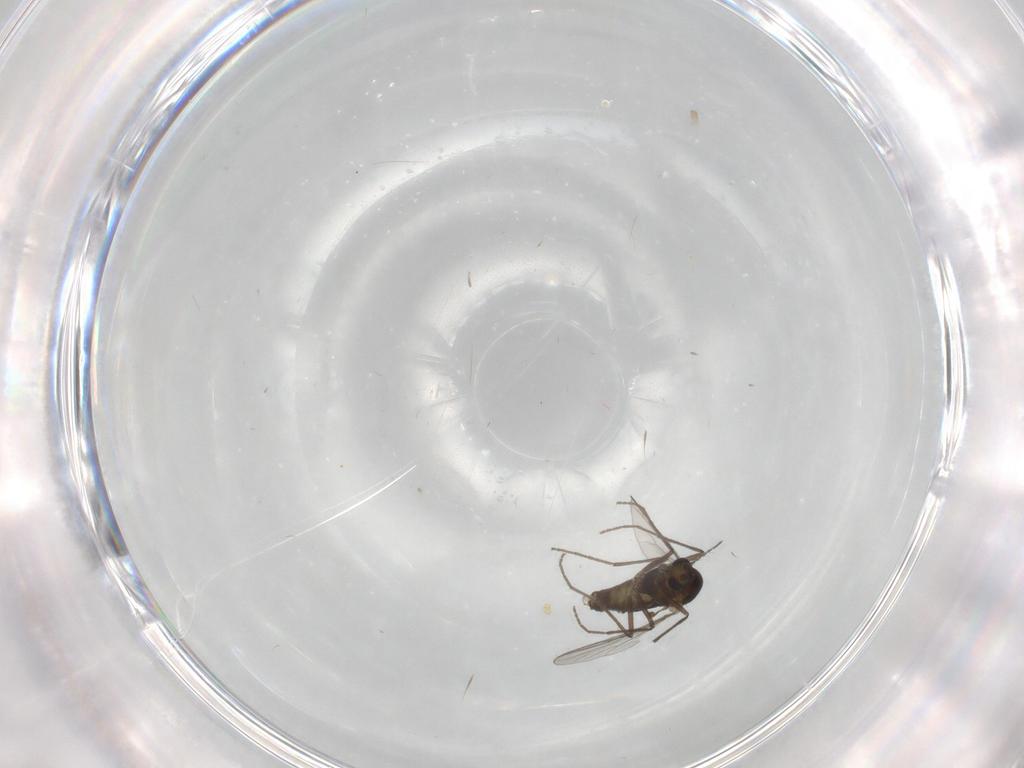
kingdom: Animalia
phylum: Arthropoda
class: Insecta
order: Diptera
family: Chironomidae
